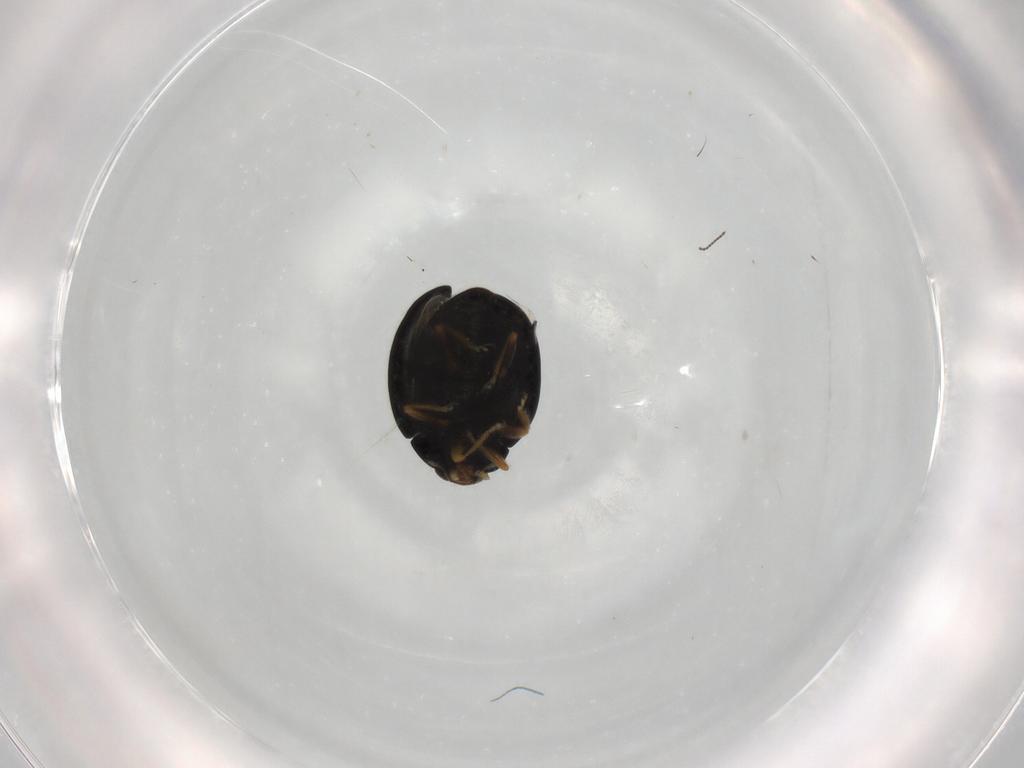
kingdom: Animalia
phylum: Arthropoda
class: Insecta
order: Coleoptera
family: Coccinellidae
